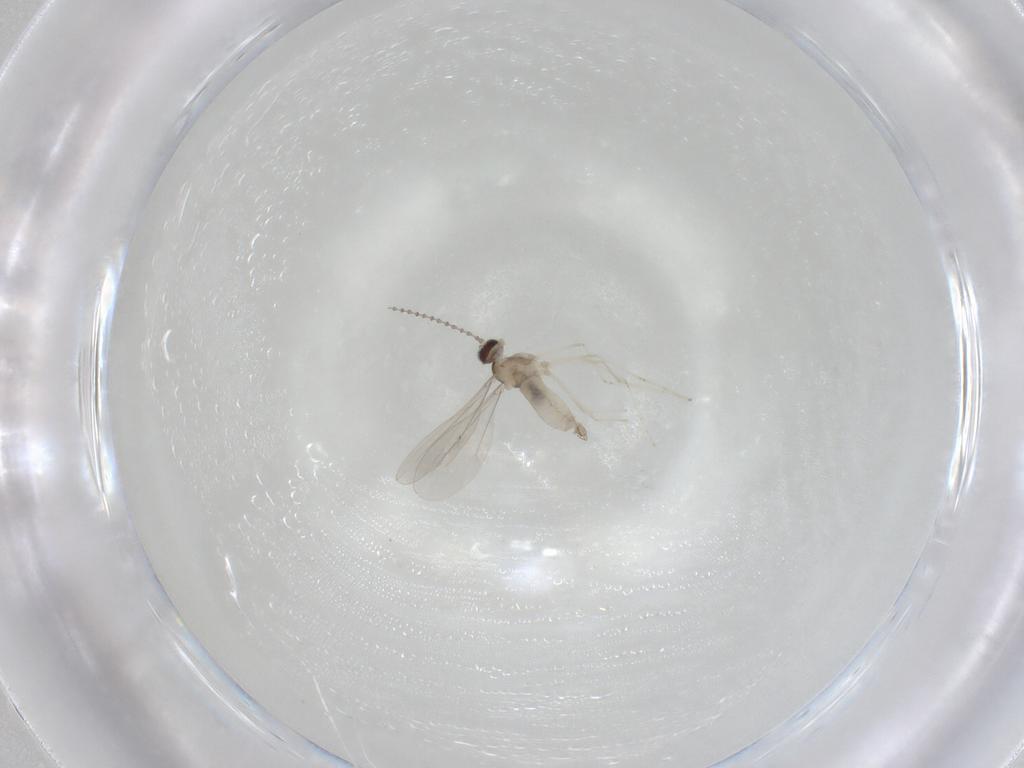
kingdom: Animalia
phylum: Arthropoda
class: Insecta
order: Diptera
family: Cecidomyiidae
